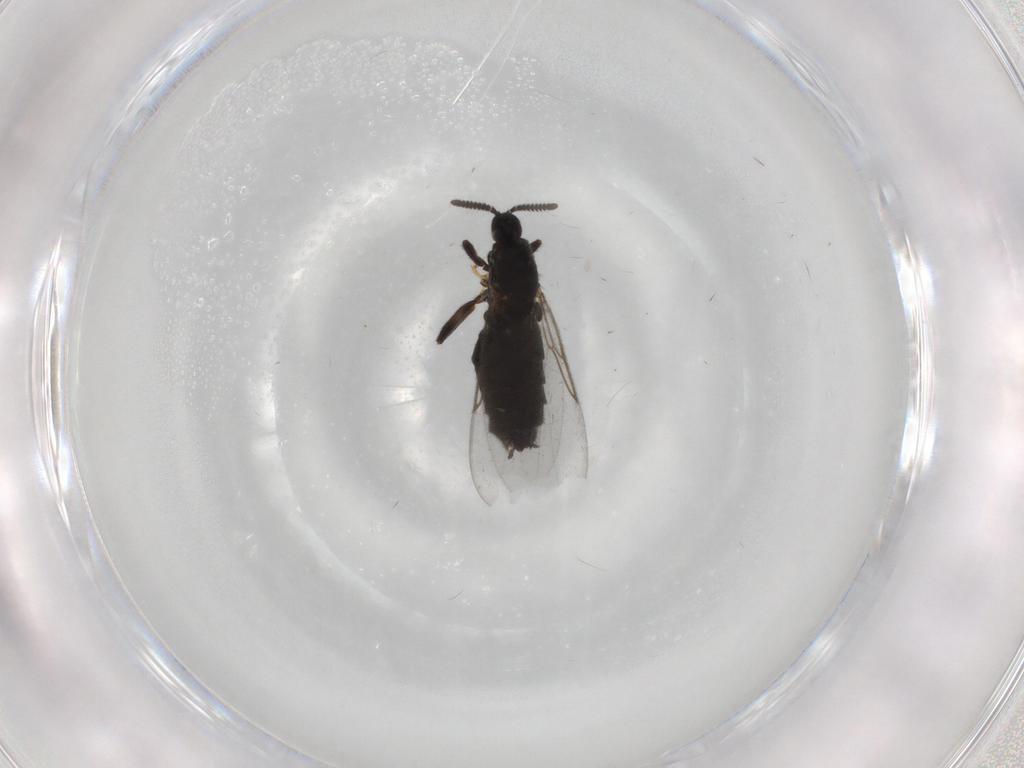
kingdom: Animalia
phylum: Arthropoda
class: Insecta
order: Diptera
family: Scatopsidae
